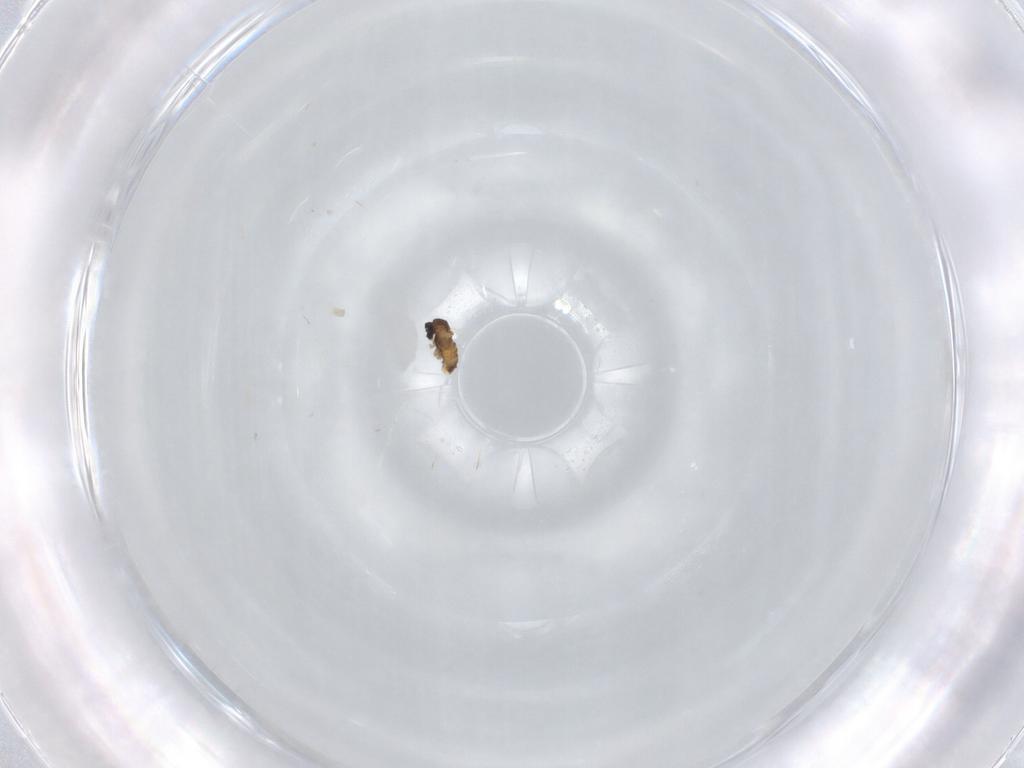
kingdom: Animalia
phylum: Arthropoda
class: Insecta
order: Diptera
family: Cecidomyiidae
